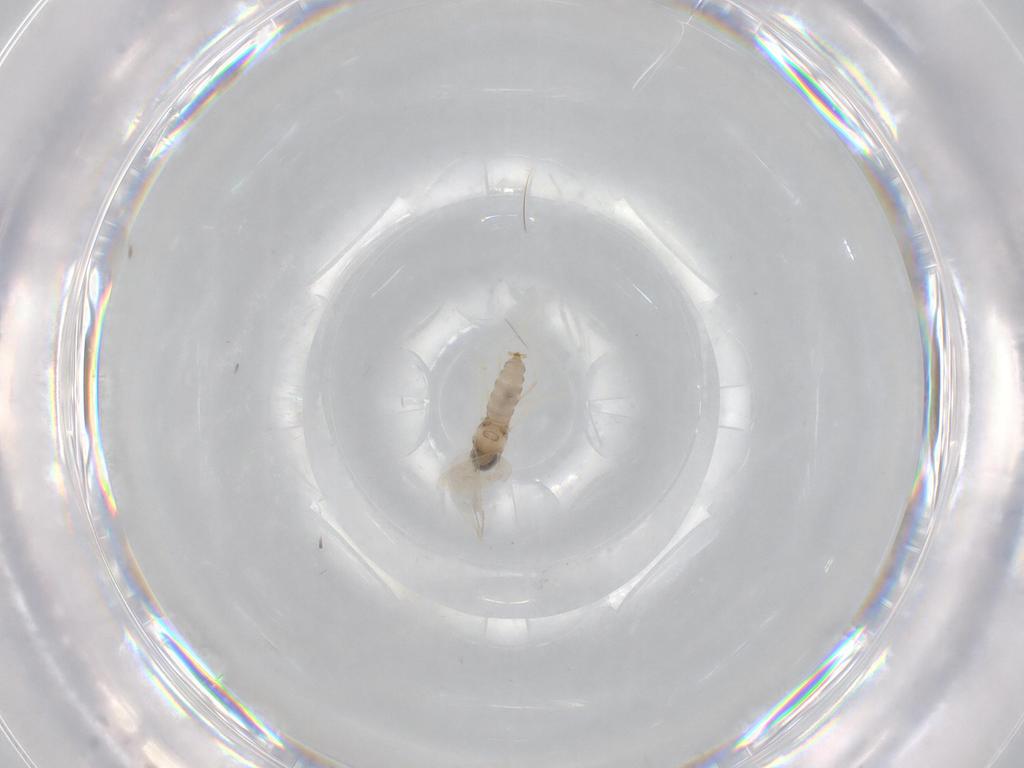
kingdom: Animalia
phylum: Arthropoda
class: Insecta
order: Diptera
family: Cecidomyiidae
